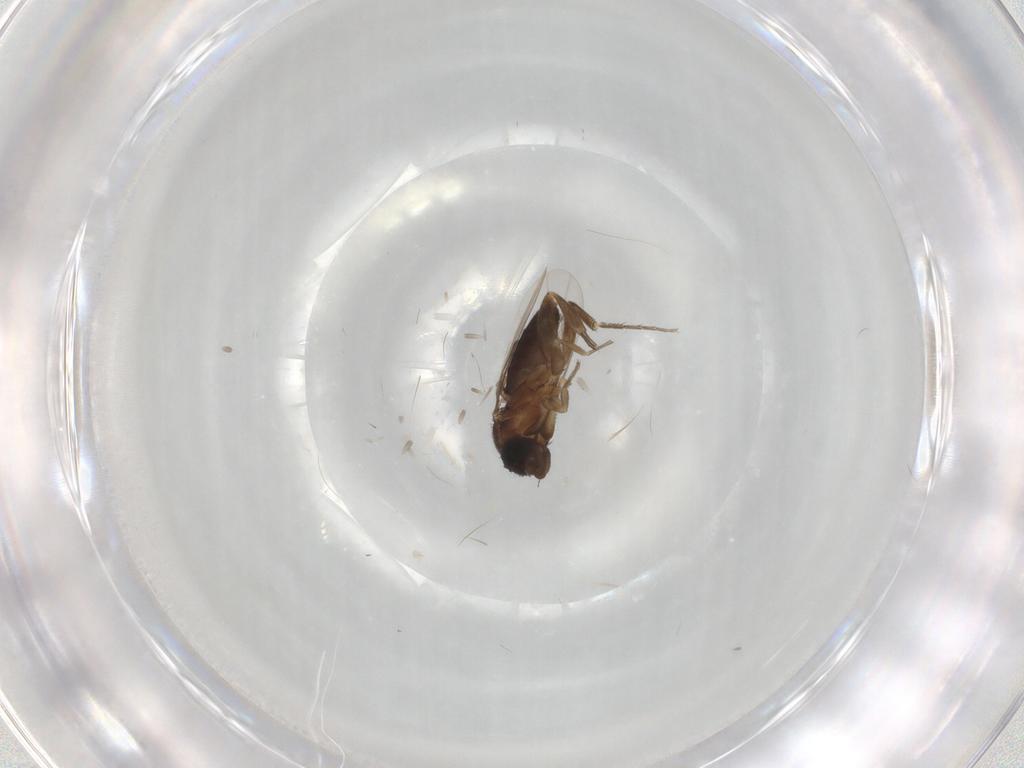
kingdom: Animalia
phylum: Arthropoda
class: Insecta
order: Diptera
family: Phoridae
